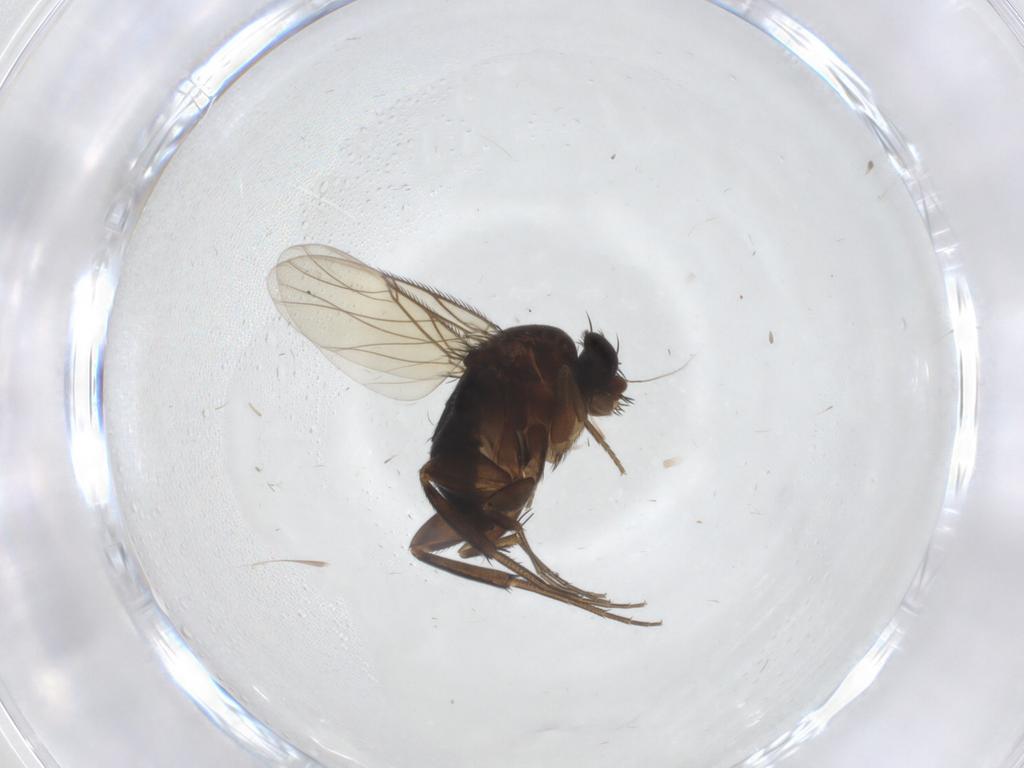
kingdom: Animalia
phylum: Arthropoda
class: Insecta
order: Diptera
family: Phoridae
